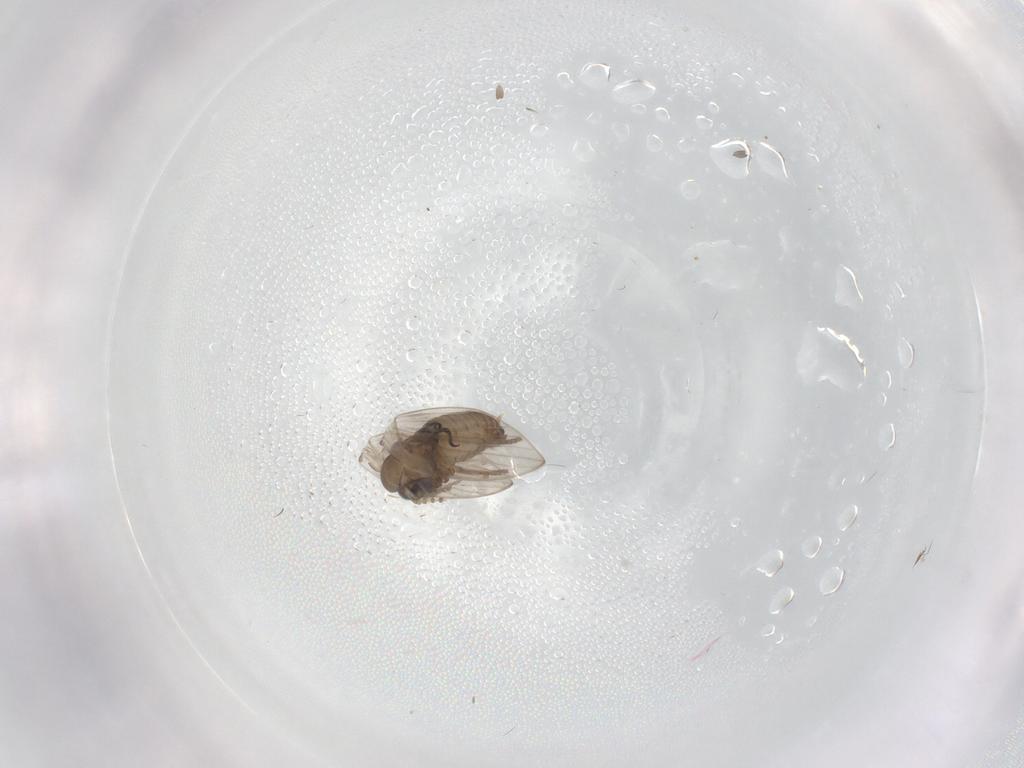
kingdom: Animalia
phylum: Arthropoda
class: Insecta
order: Diptera
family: Psychodidae
